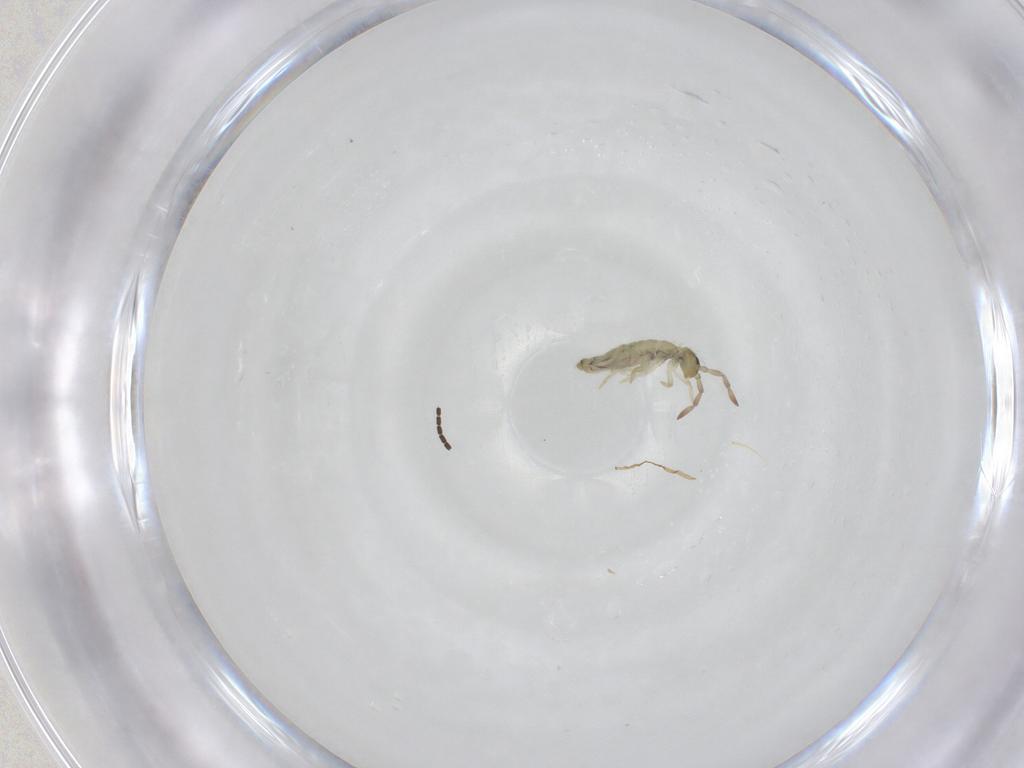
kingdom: Animalia
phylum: Arthropoda
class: Collembola
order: Entomobryomorpha
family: Entomobryidae
